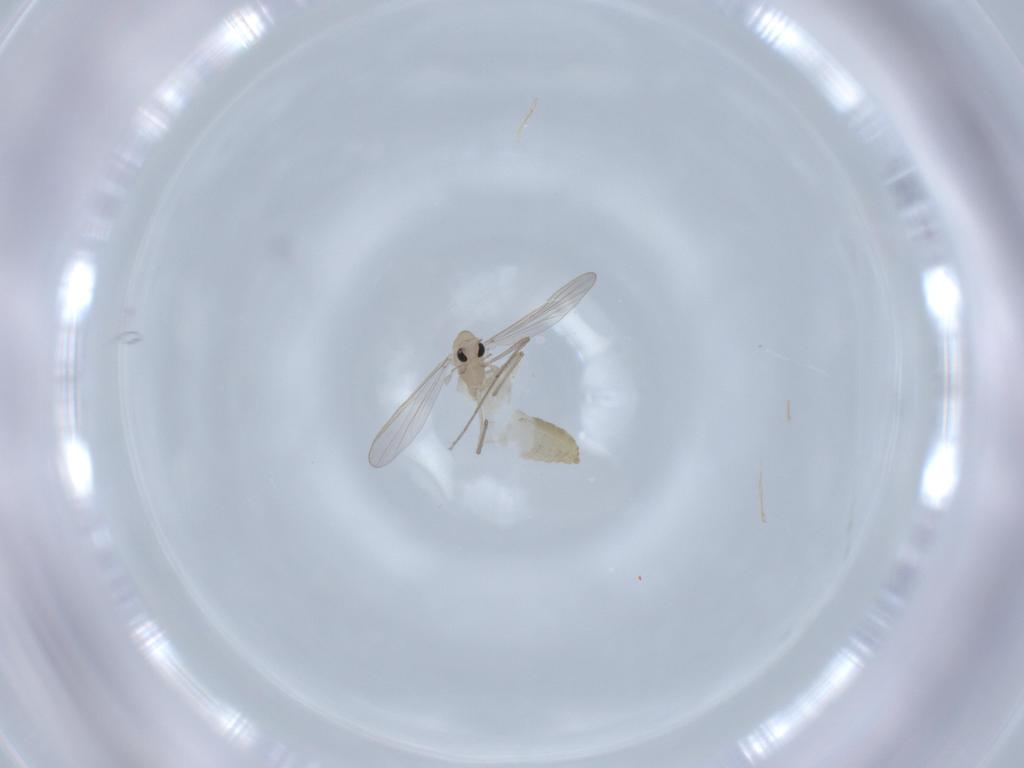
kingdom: Animalia
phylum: Arthropoda
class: Insecta
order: Diptera
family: Chironomidae
